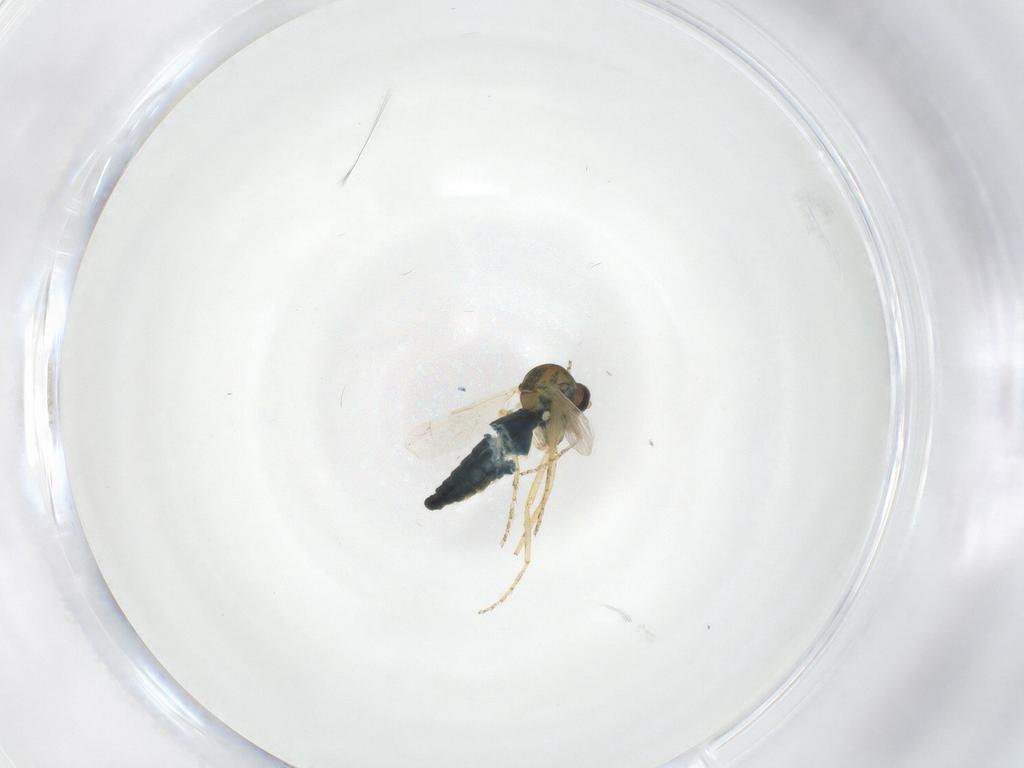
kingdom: Animalia
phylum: Arthropoda
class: Insecta
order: Diptera
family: Ceratopogonidae
